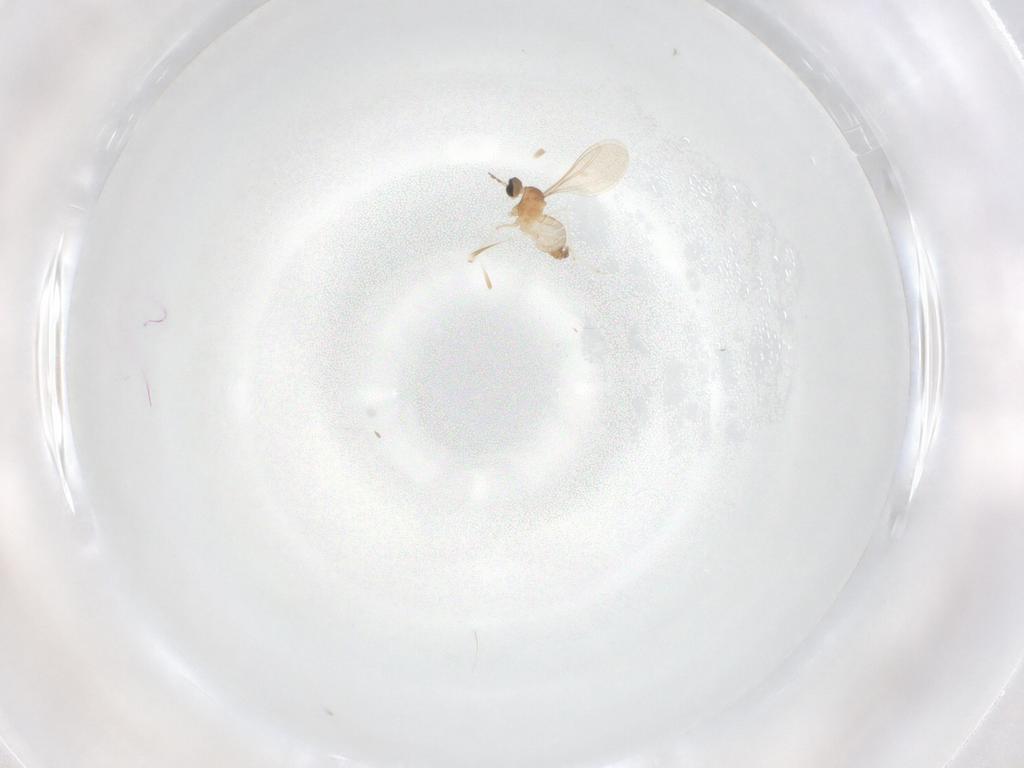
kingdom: Animalia
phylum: Arthropoda
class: Insecta
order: Diptera
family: Cecidomyiidae
